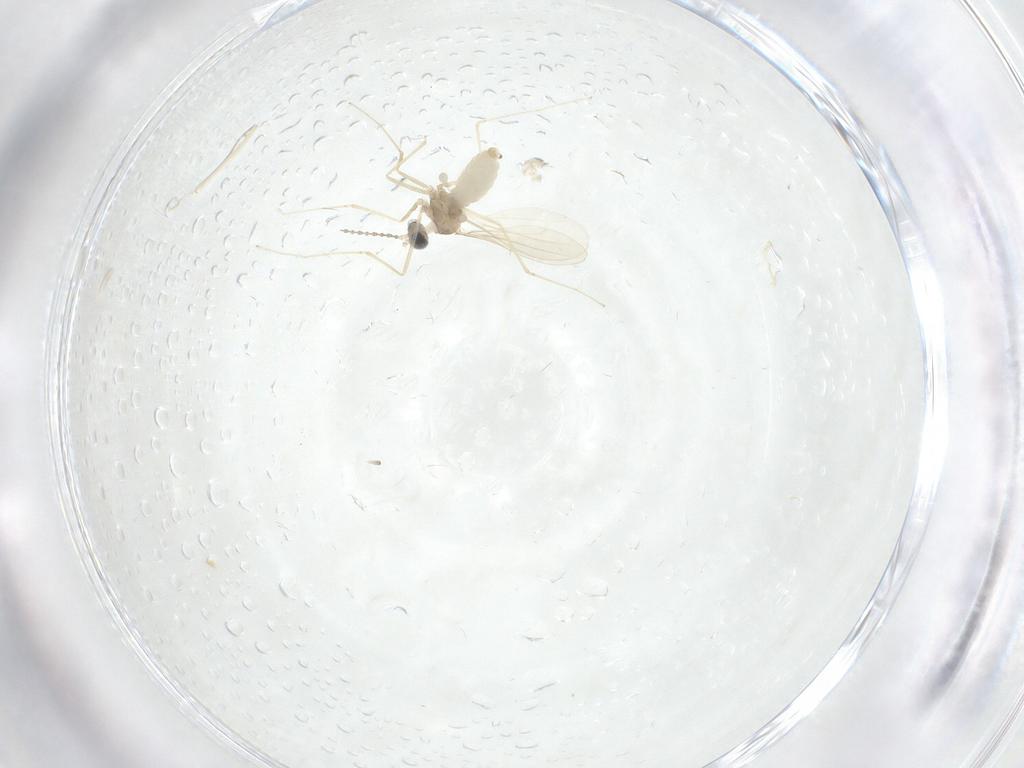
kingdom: Animalia
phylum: Arthropoda
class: Insecta
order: Diptera
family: Cecidomyiidae
